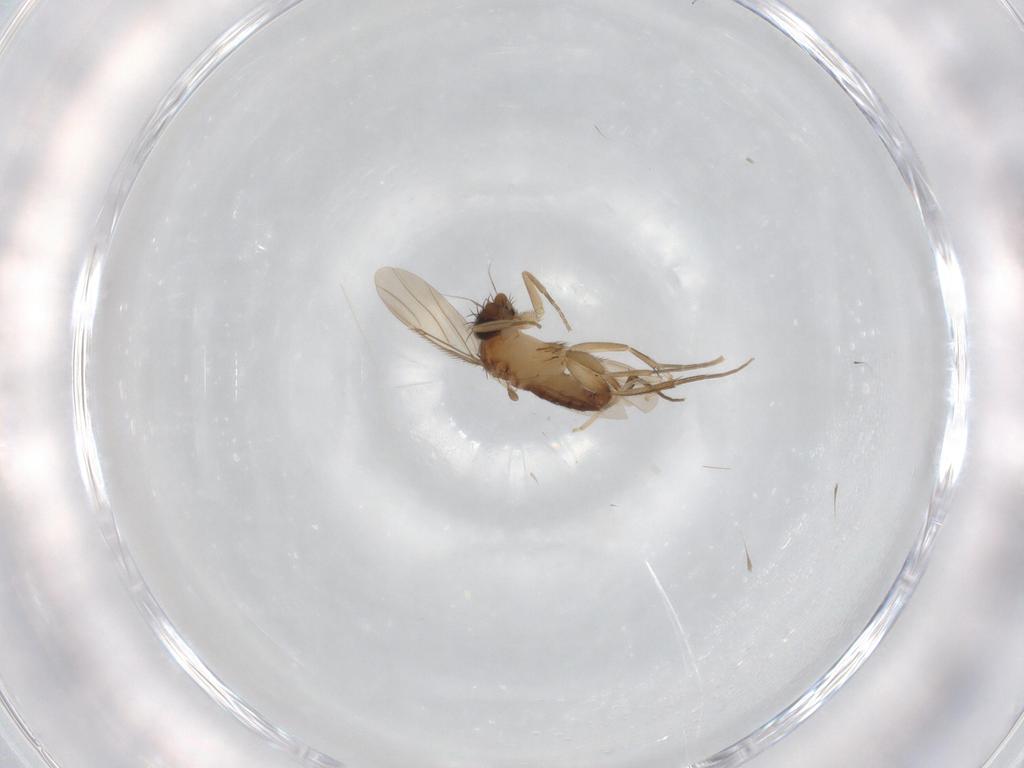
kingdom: Animalia
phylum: Arthropoda
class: Insecta
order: Diptera
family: Phoridae
